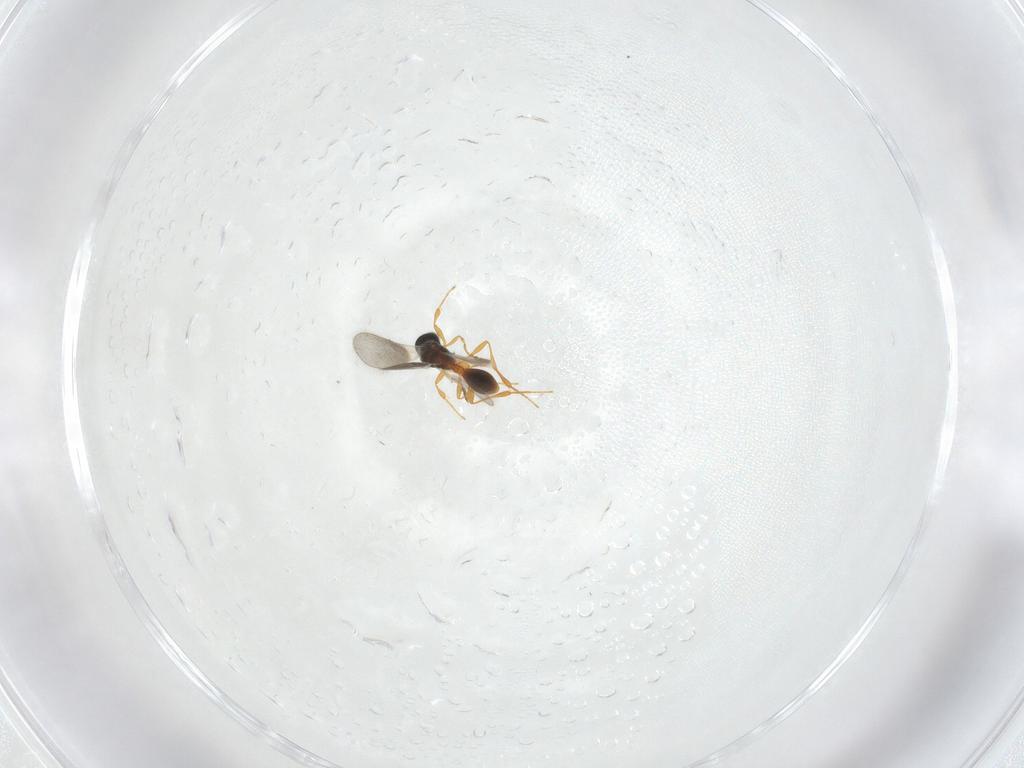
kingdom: Animalia
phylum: Arthropoda
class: Insecta
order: Hymenoptera
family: Platygastridae
